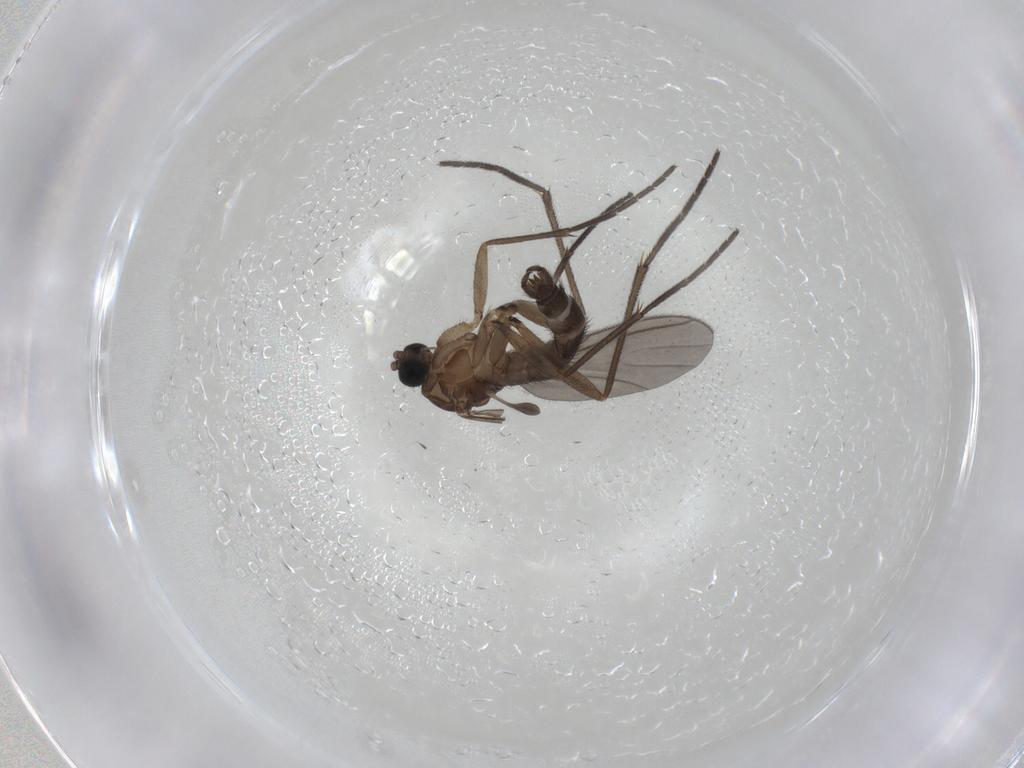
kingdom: Animalia
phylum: Arthropoda
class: Insecta
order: Diptera
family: Sciaridae
